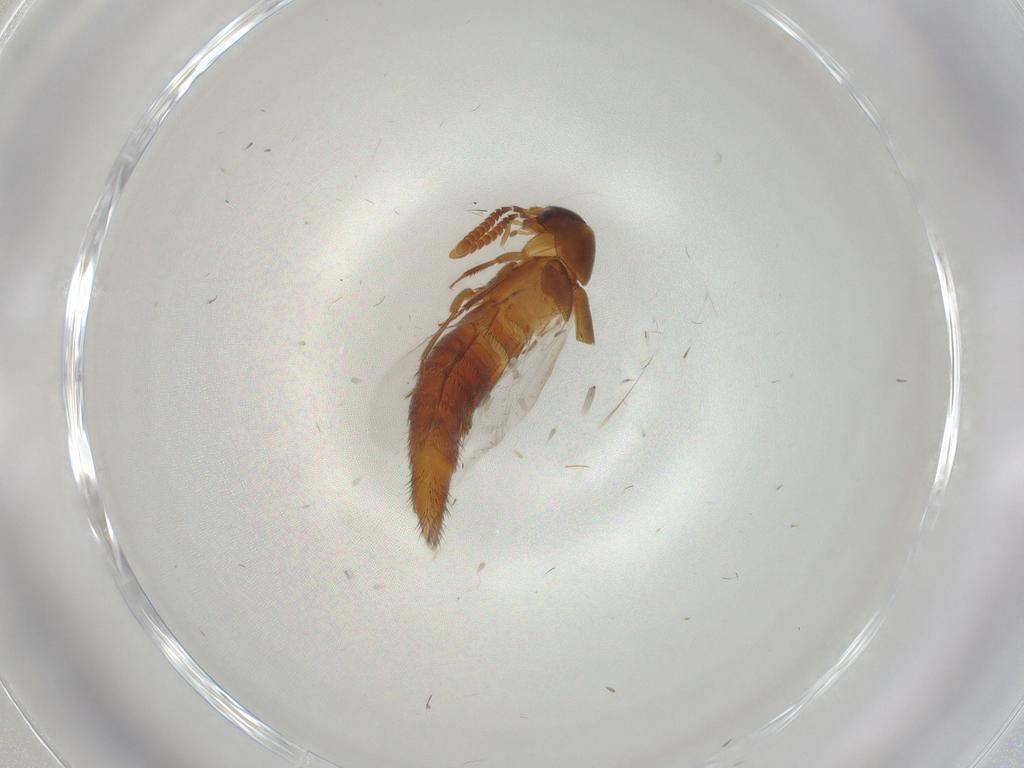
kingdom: Animalia
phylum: Arthropoda
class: Insecta
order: Coleoptera
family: Staphylinidae
